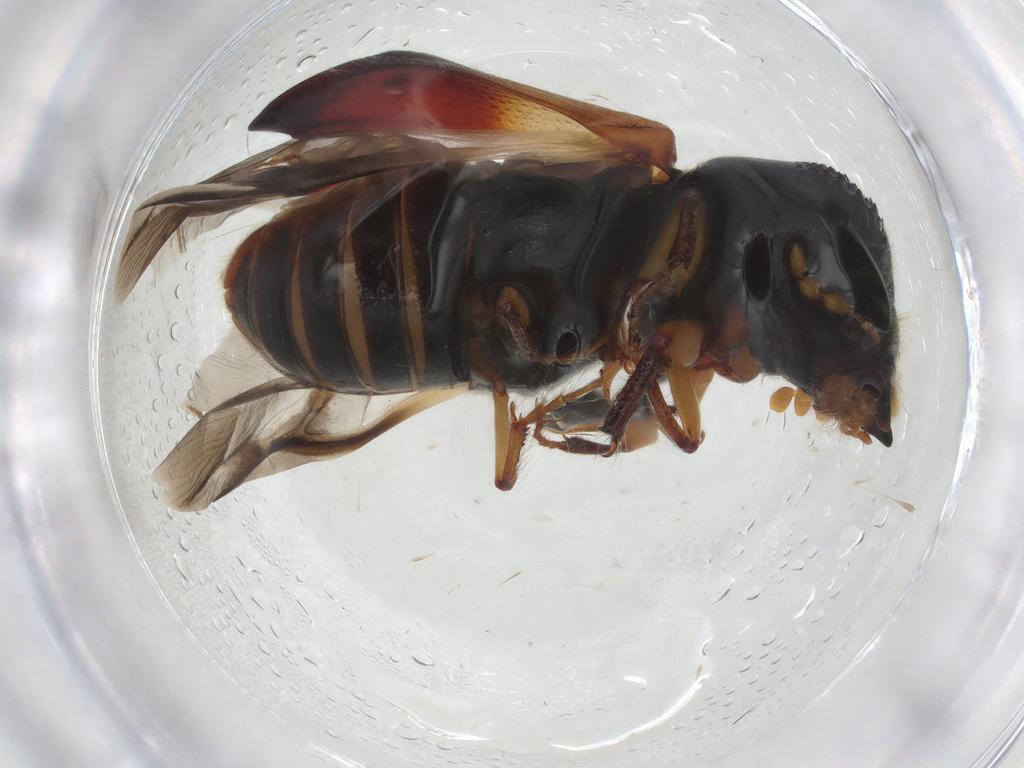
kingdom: Animalia
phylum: Arthropoda
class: Insecta
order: Coleoptera
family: Bostrichidae
